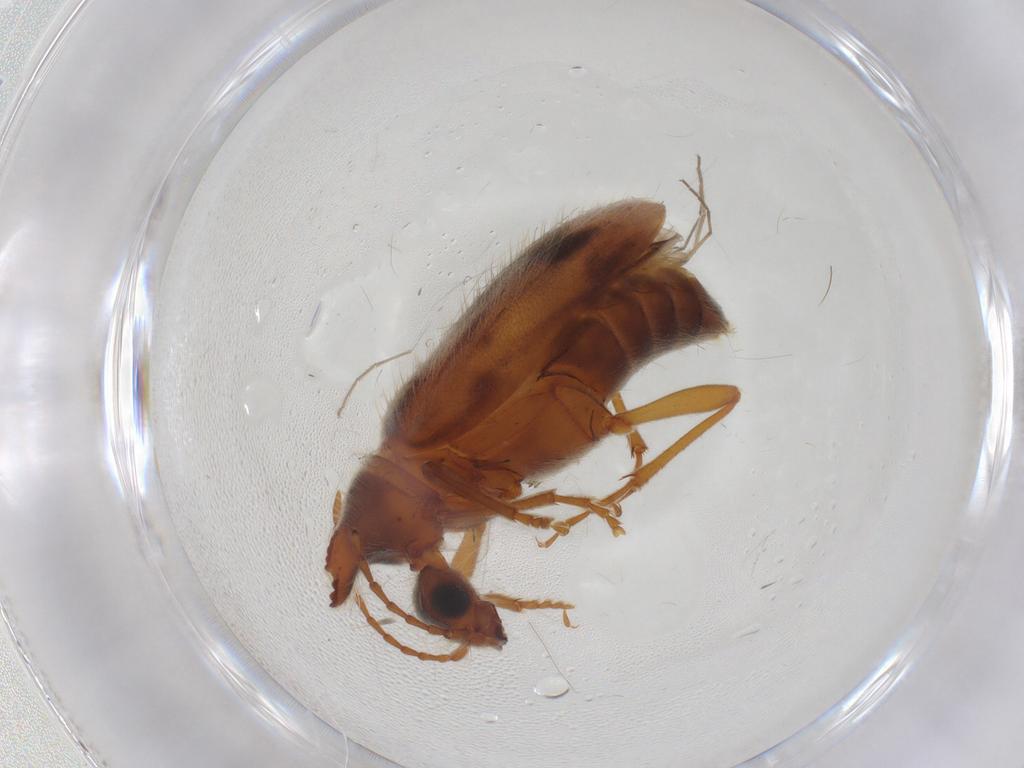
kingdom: Animalia
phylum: Arthropoda
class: Insecta
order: Coleoptera
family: Anthicidae
